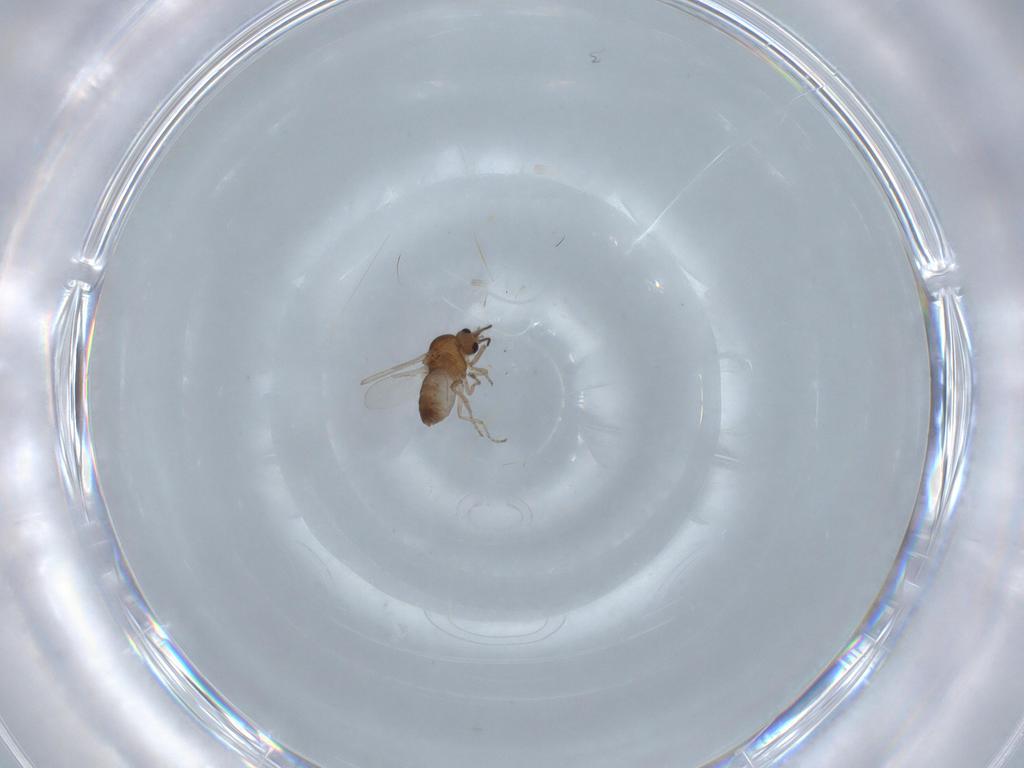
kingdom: Animalia
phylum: Arthropoda
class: Insecta
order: Diptera
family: Ceratopogonidae
